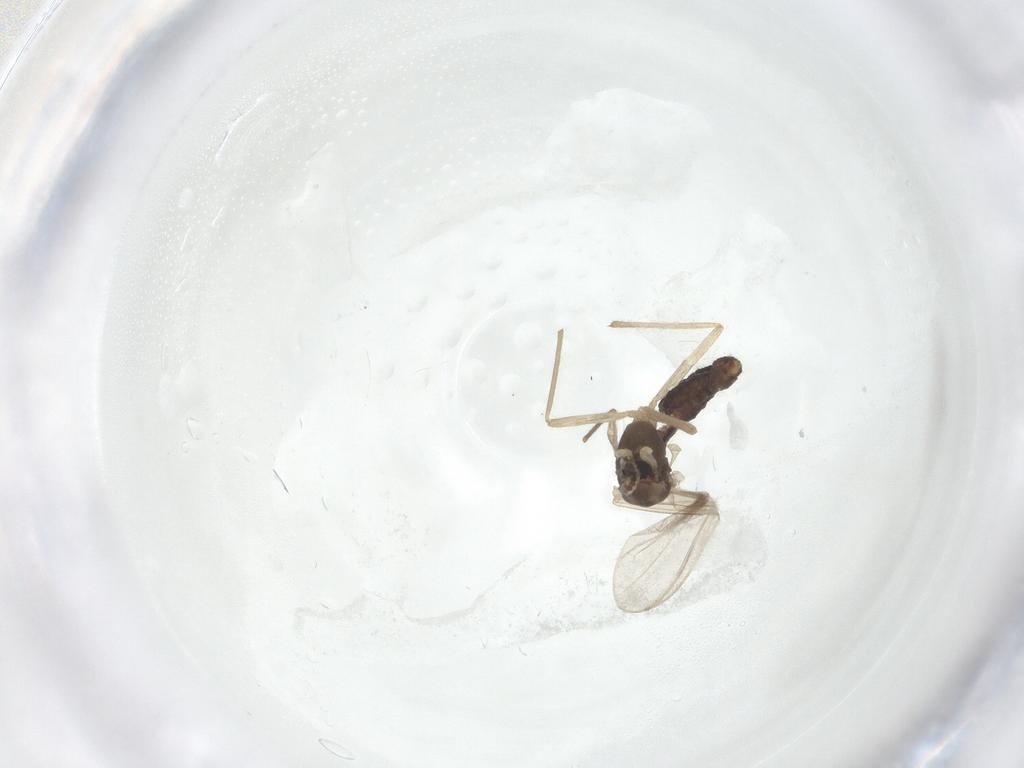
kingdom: Animalia
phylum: Arthropoda
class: Insecta
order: Diptera
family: Chironomidae
